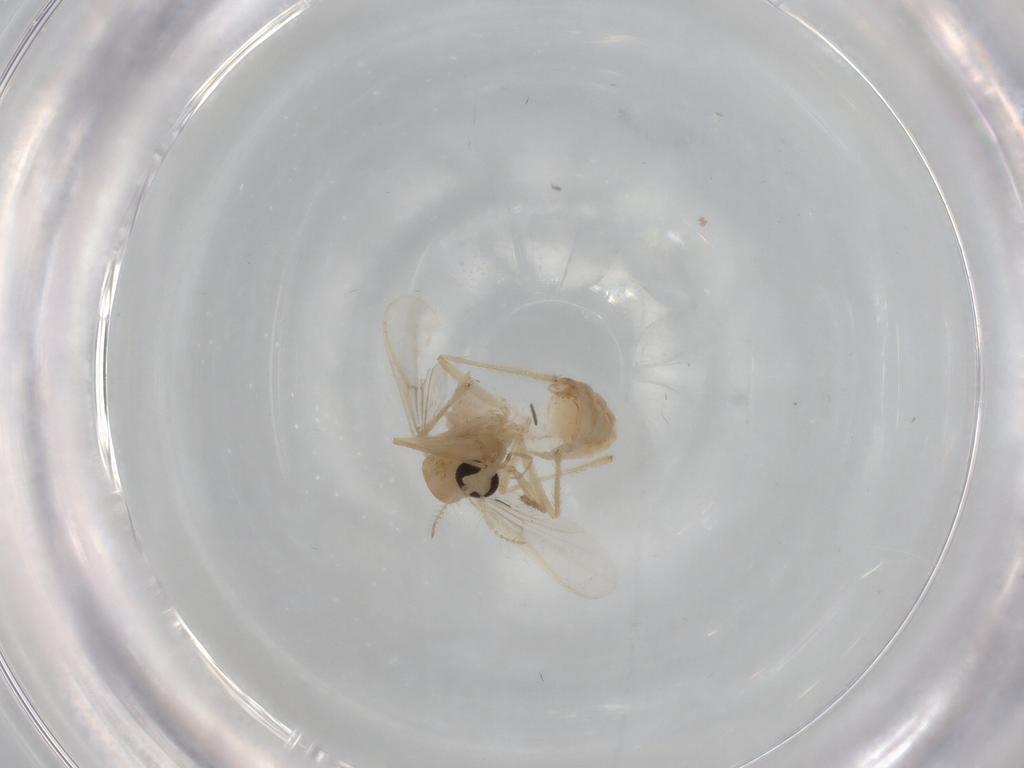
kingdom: Animalia
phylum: Arthropoda
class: Insecta
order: Diptera
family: Chironomidae
